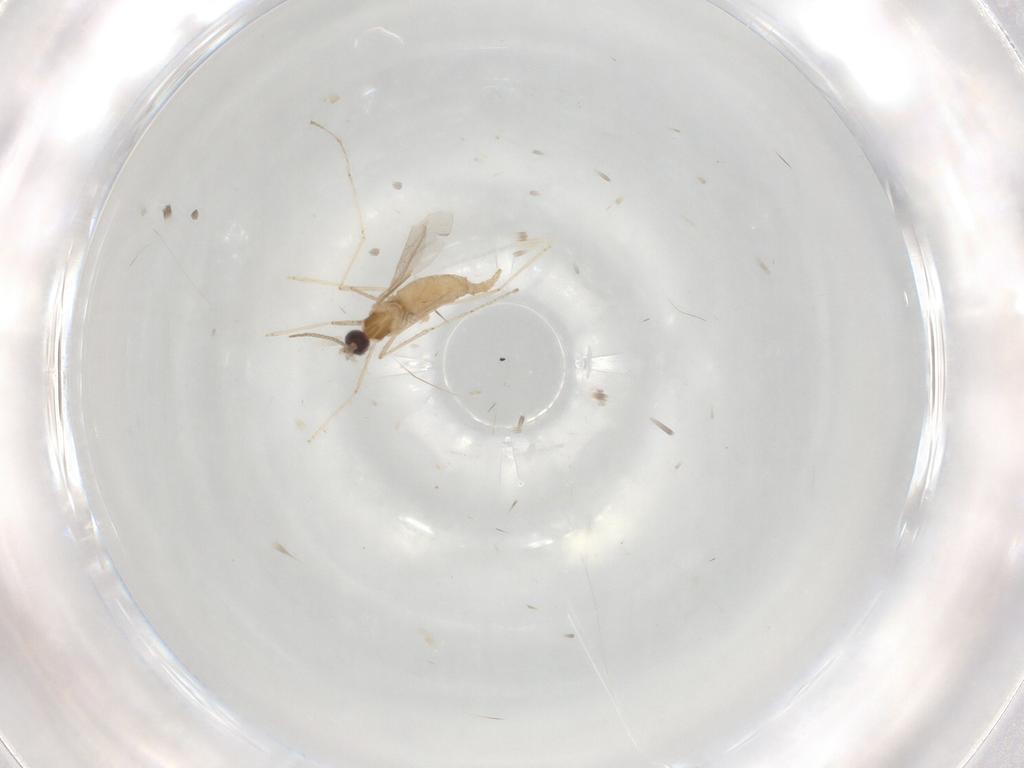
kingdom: Animalia
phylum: Arthropoda
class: Insecta
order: Diptera
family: Cecidomyiidae
